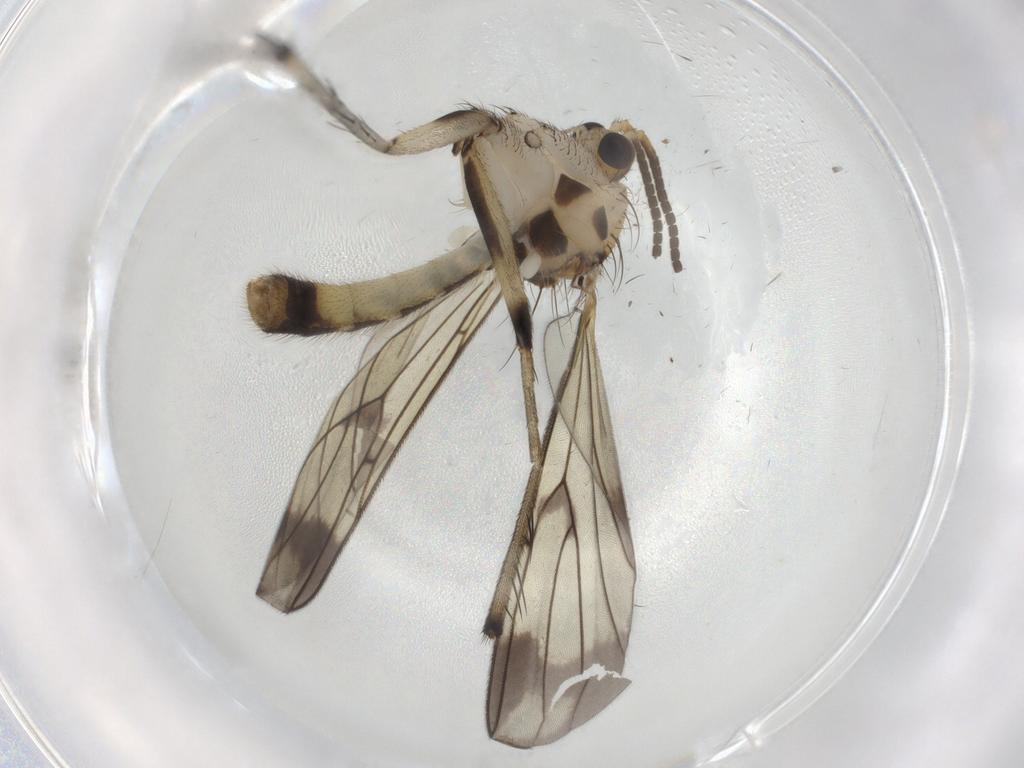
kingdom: Animalia
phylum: Arthropoda
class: Insecta
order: Diptera
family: Mycetophilidae
